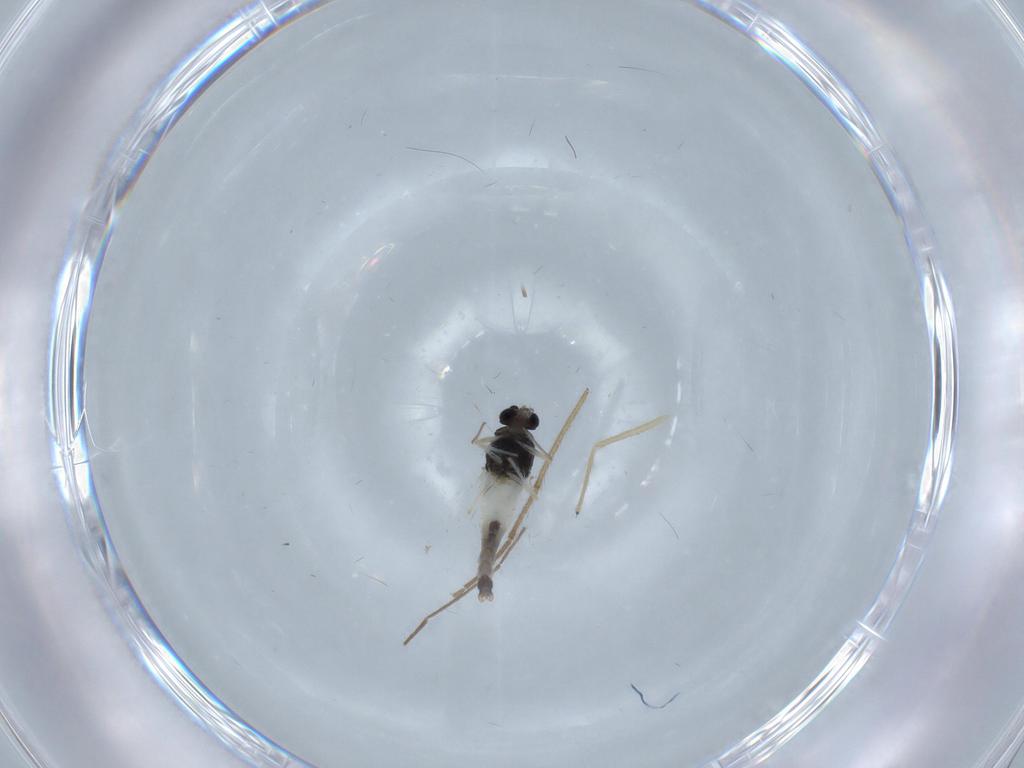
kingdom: Animalia
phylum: Arthropoda
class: Insecta
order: Diptera
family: Chironomidae
